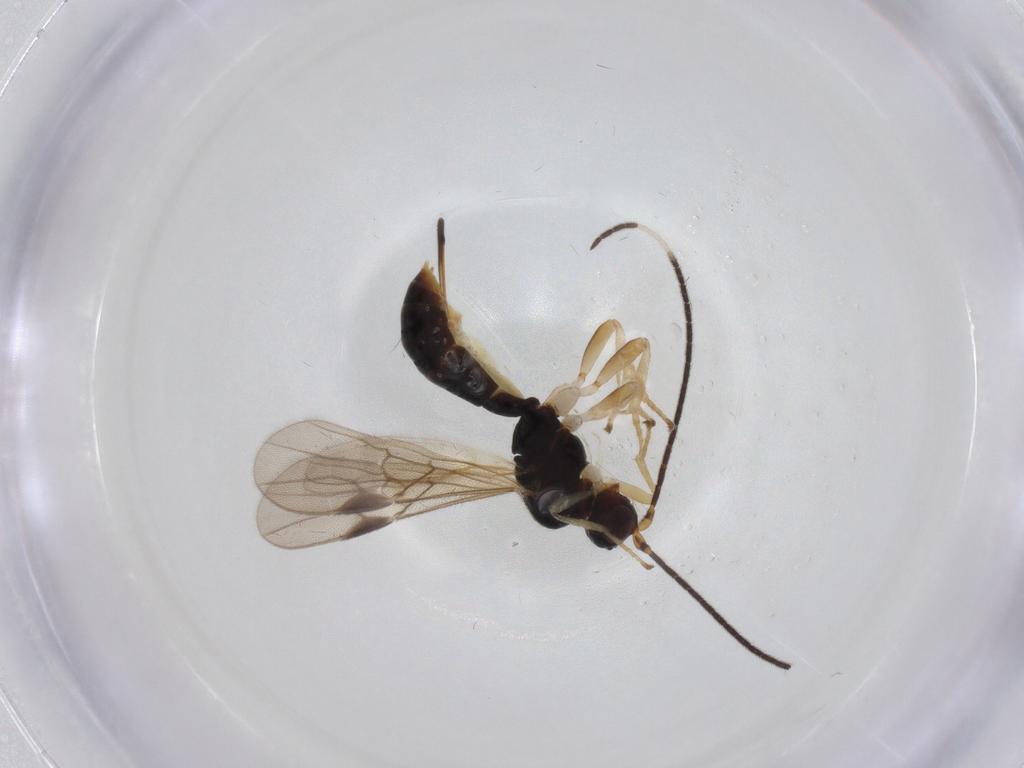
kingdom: Animalia
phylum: Arthropoda
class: Insecta
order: Hymenoptera
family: Braconidae
